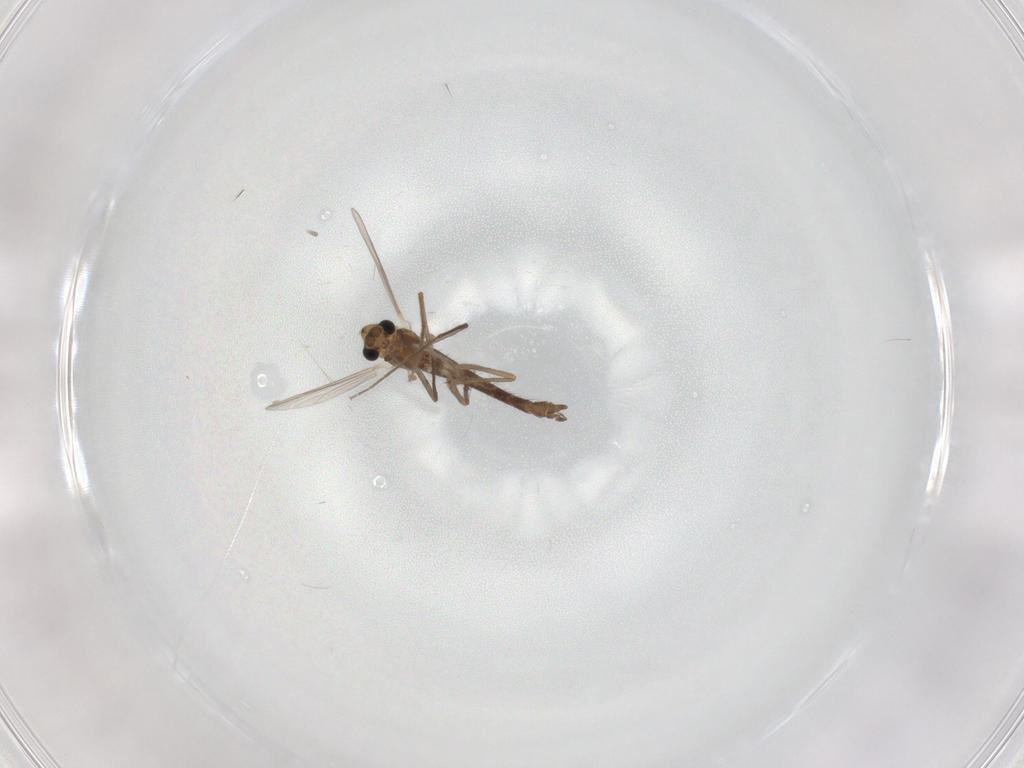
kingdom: Animalia
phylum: Arthropoda
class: Insecta
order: Diptera
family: Chironomidae
